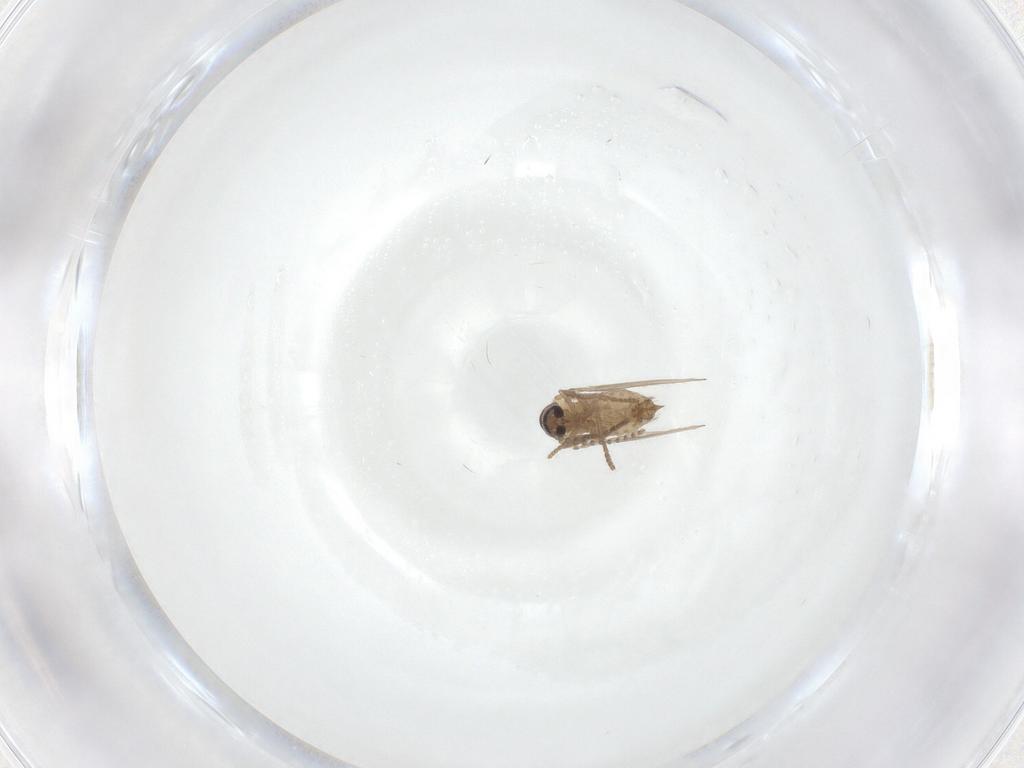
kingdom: Animalia
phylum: Arthropoda
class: Insecta
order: Diptera
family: Psychodidae
